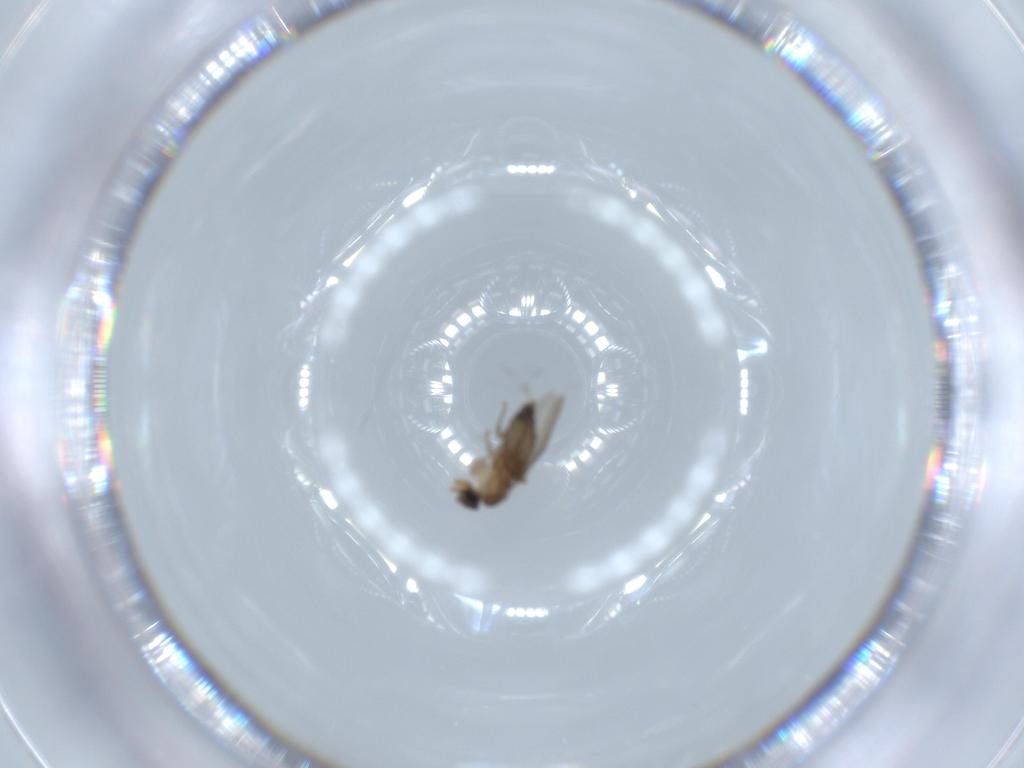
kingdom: Animalia
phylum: Arthropoda
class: Insecta
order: Diptera
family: Phoridae
